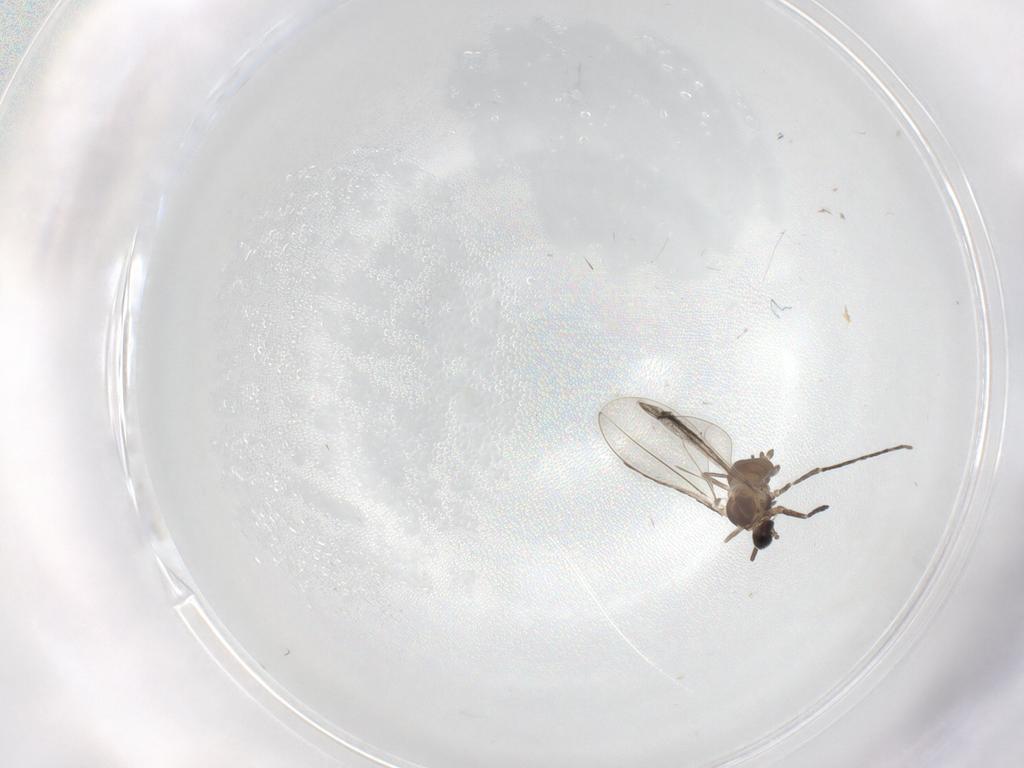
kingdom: Animalia
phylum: Arthropoda
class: Insecta
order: Diptera
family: Cecidomyiidae
